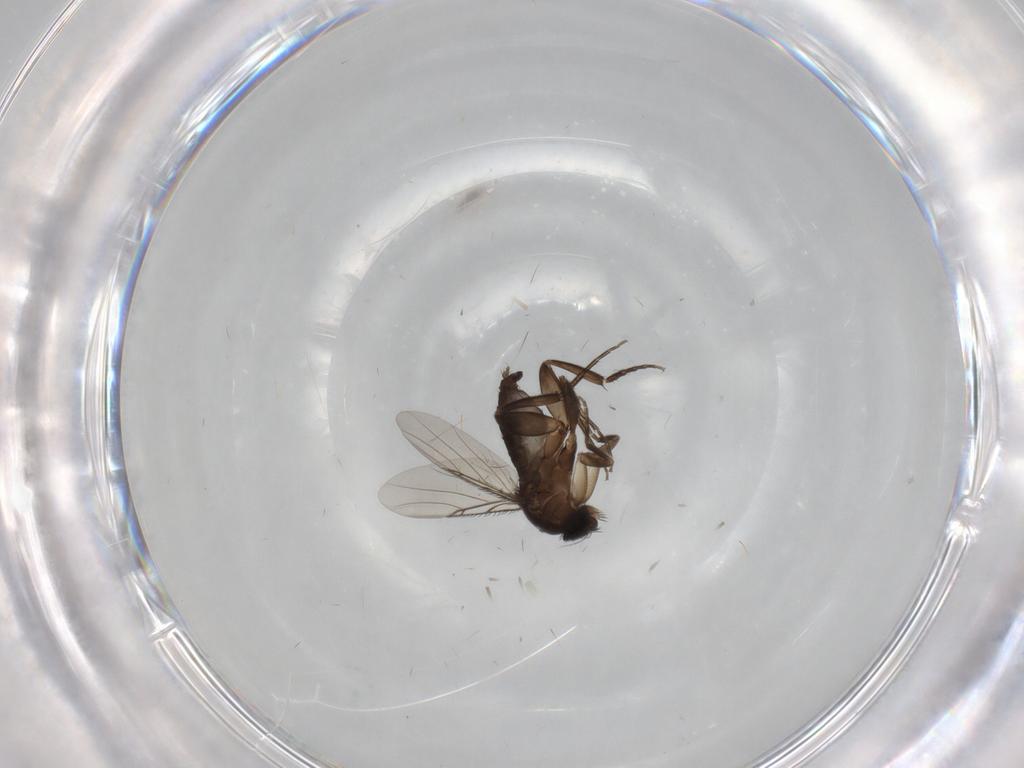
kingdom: Animalia
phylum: Arthropoda
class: Insecta
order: Diptera
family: Phoridae
